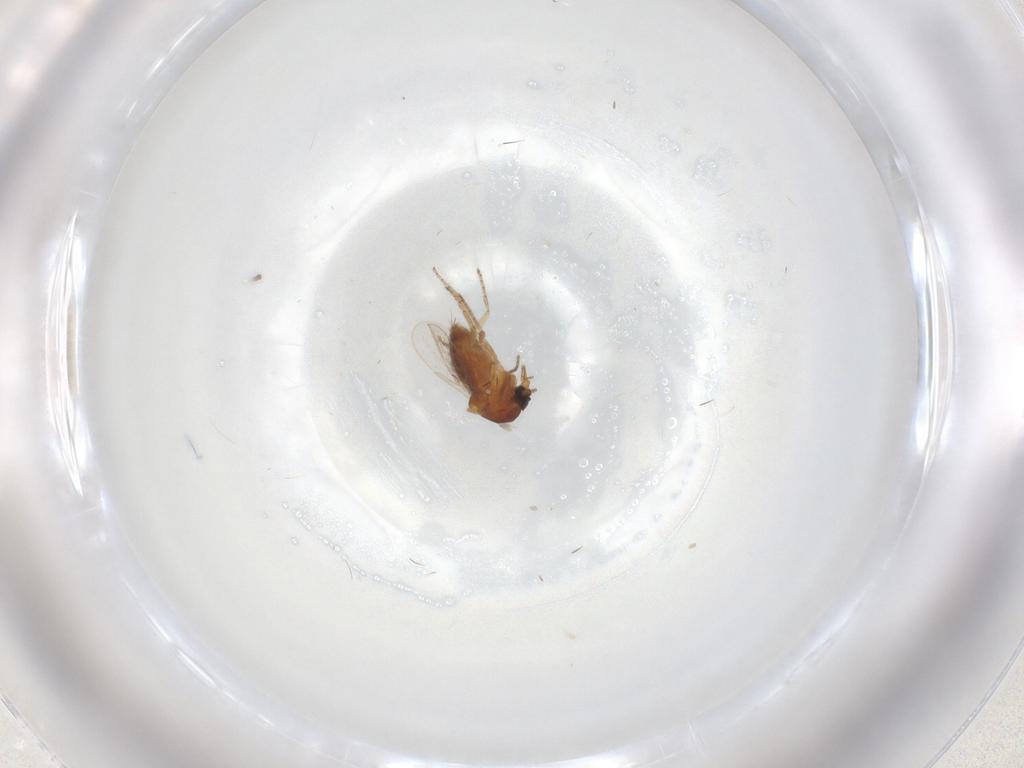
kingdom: Animalia
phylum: Arthropoda
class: Insecta
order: Diptera
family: Ceratopogonidae
